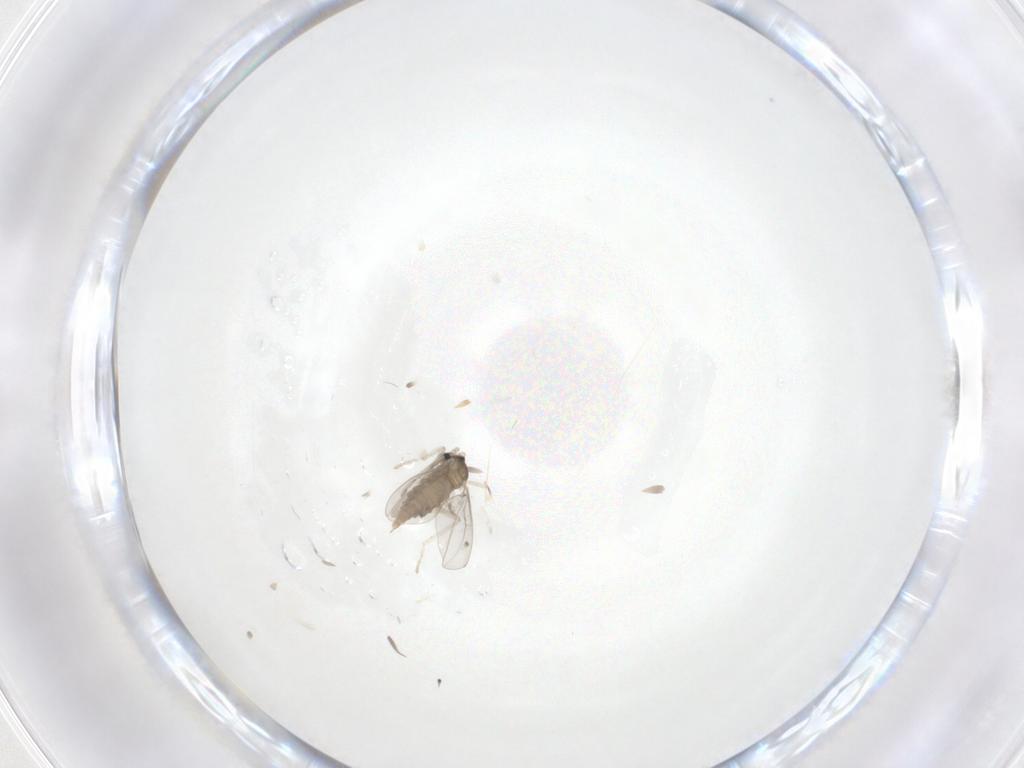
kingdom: Animalia
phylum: Arthropoda
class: Insecta
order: Diptera
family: Cecidomyiidae
